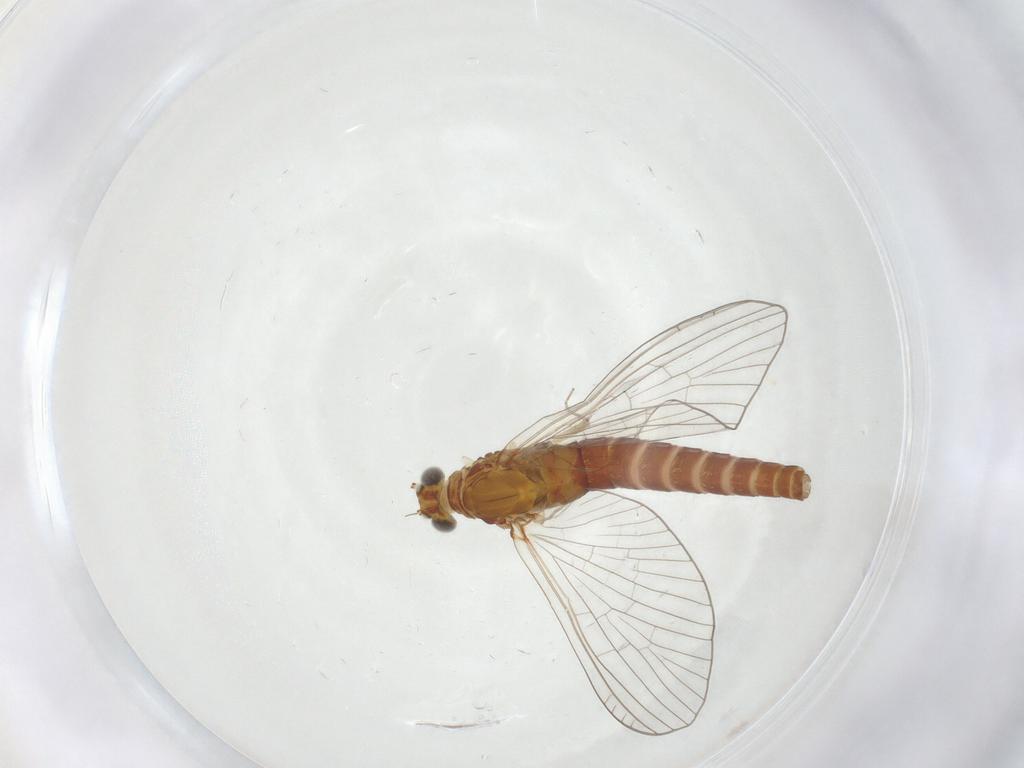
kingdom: Animalia
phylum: Arthropoda
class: Insecta
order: Ephemeroptera
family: Baetidae
